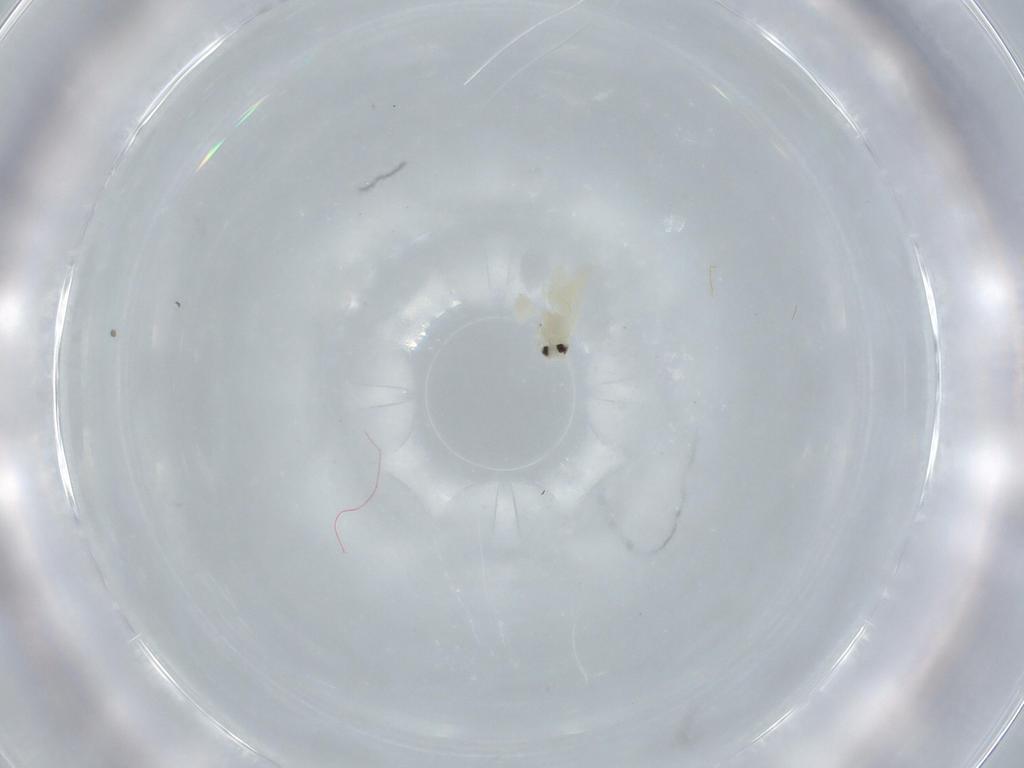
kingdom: Animalia
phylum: Arthropoda
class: Insecta
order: Hemiptera
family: Aleyrodidae
